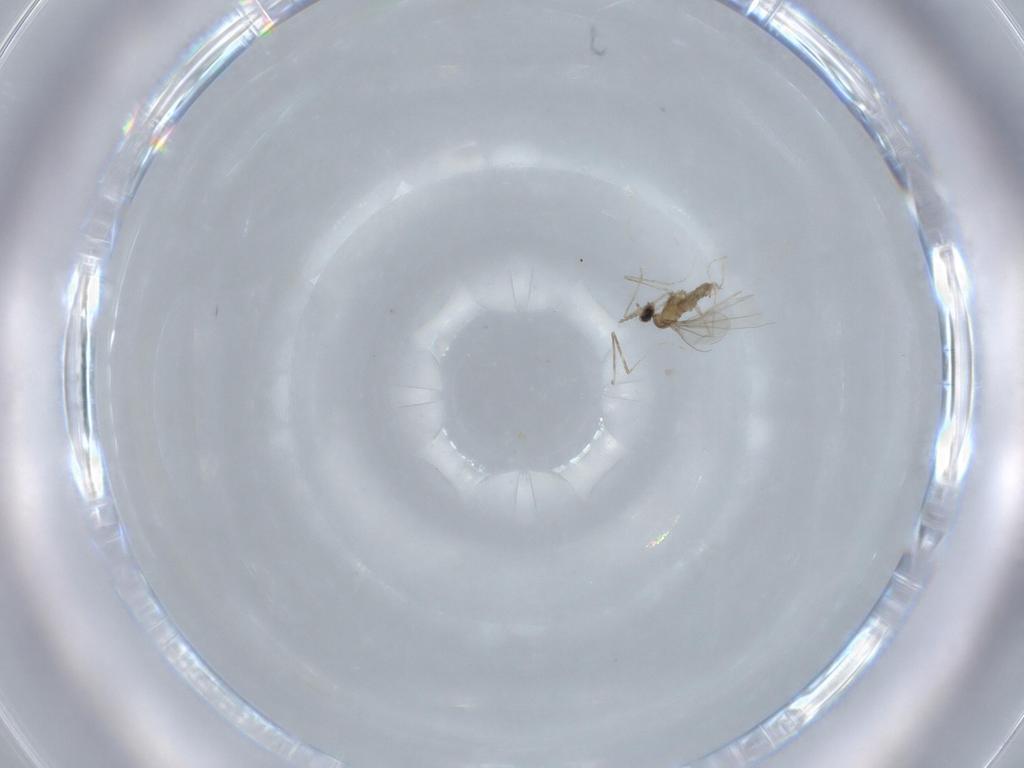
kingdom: Animalia
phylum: Arthropoda
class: Insecta
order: Diptera
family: Cecidomyiidae
